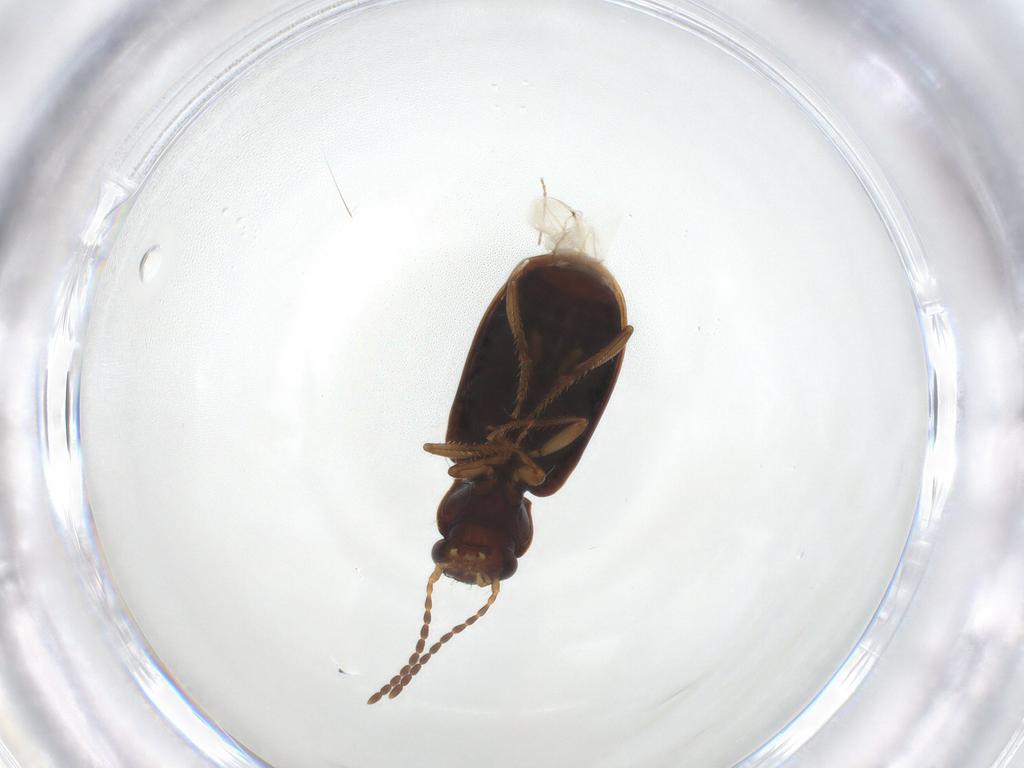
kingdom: Animalia
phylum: Arthropoda
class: Insecta
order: Coleoptera
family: Carabidae
